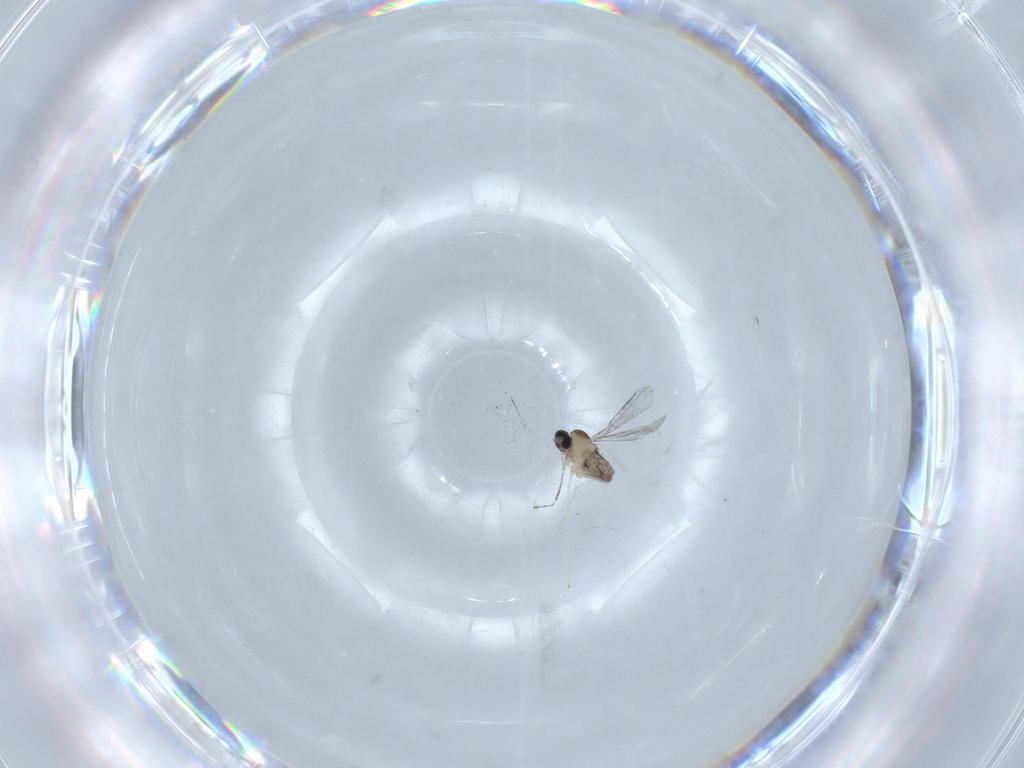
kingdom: Animalia
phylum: Arthropoda
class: Insecta
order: Diptera
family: Cecidomyiidae
